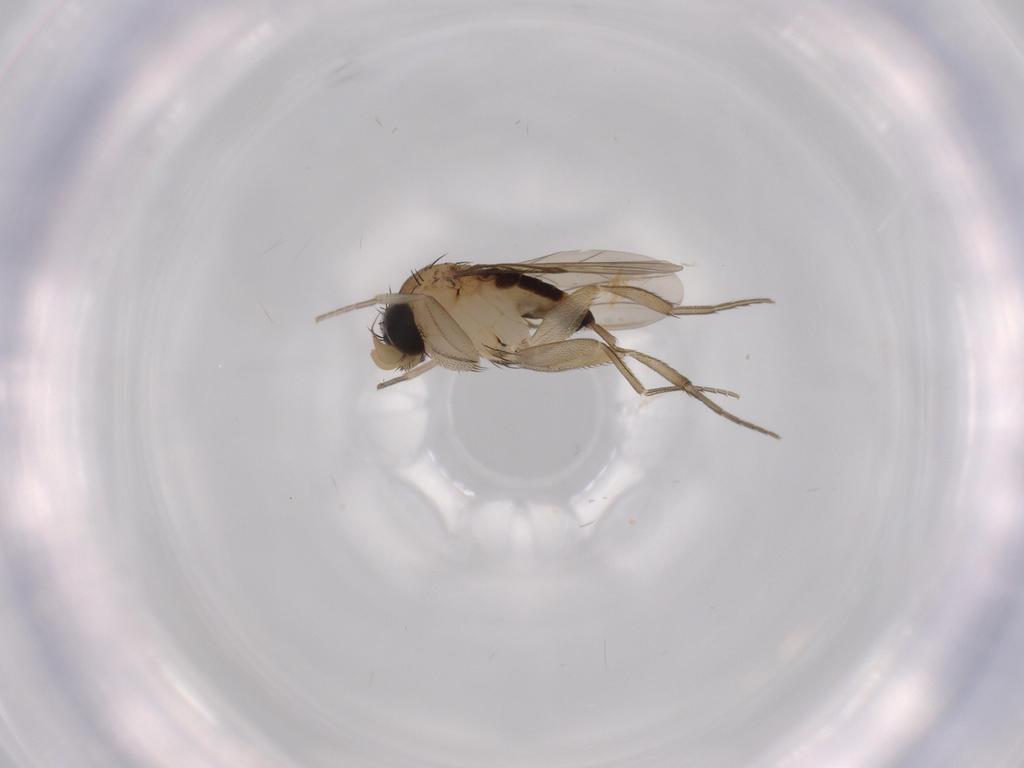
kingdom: Animalia
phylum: Arthropoda
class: Insecta
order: Diptera
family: Phoridae
